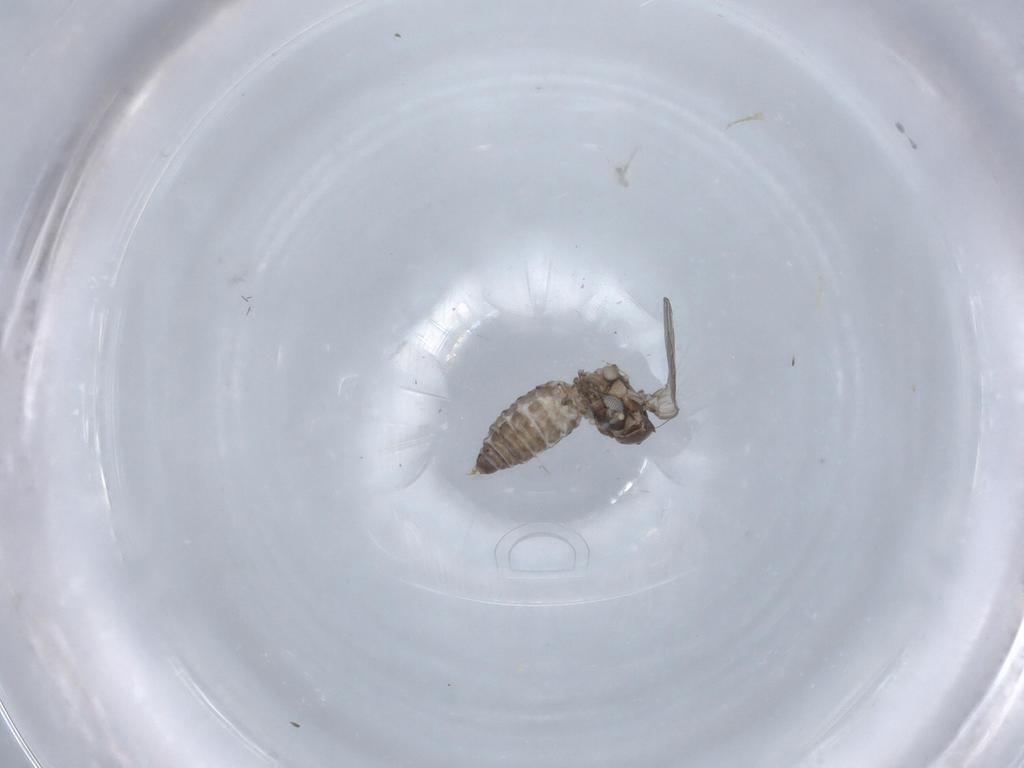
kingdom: Animalia
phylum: Arthropoda
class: Insecta
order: Diptera
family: Psychodidae
